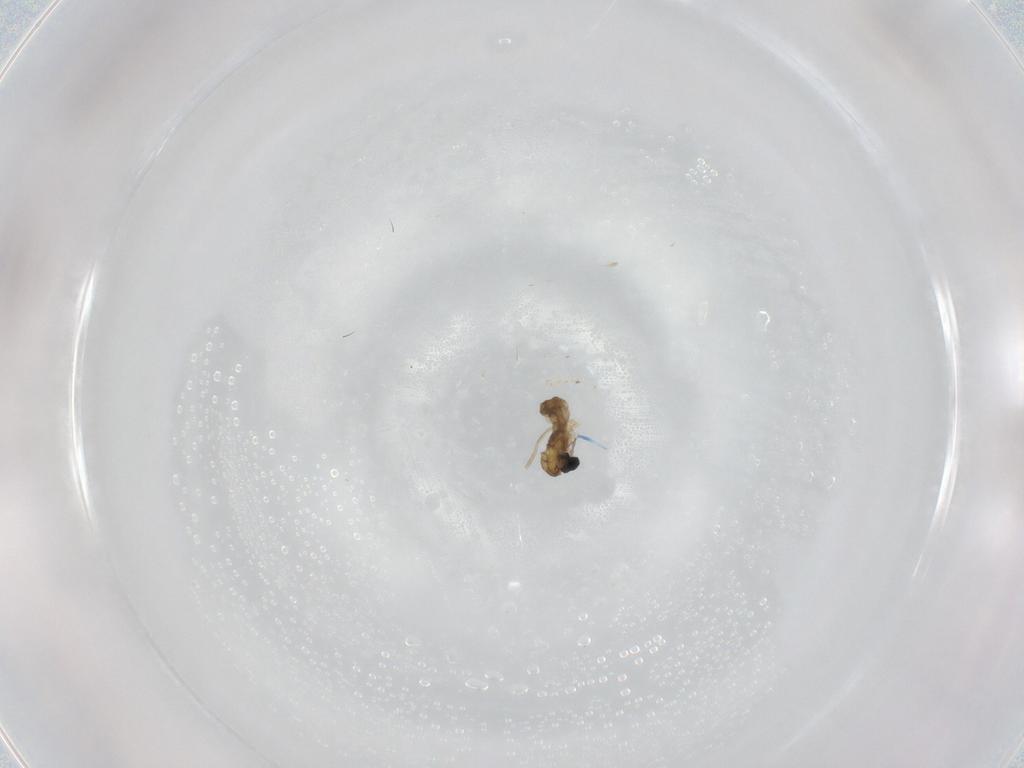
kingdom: Animalia
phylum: Arthropoda
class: Insecta
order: Diptera
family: Cecidomyiidae
